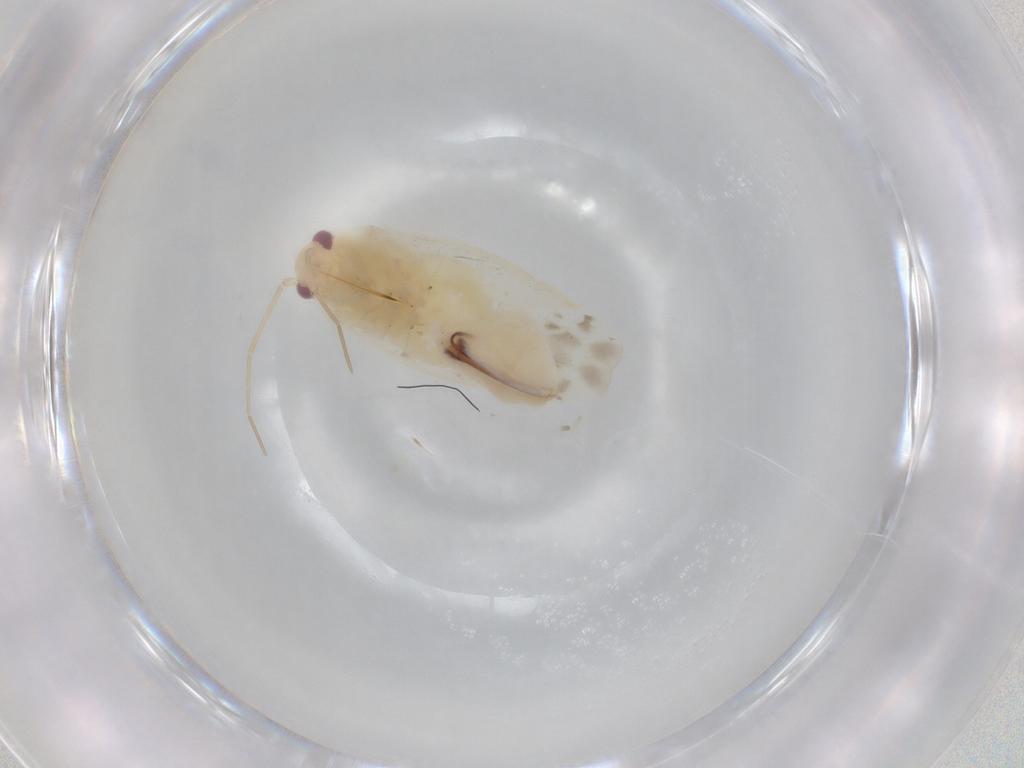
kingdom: Animalia
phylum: Arthropoda
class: Insecta
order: Hemiptera
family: Miridae
